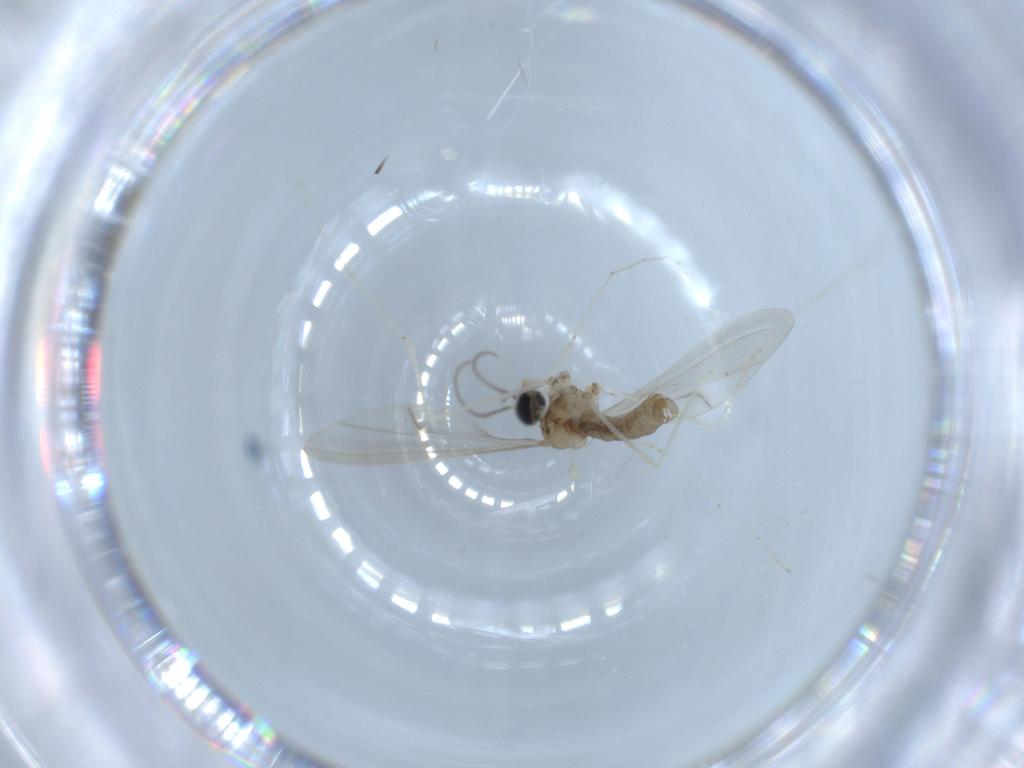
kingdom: Animalia
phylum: Arthropoda
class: Insecta
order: Diptera
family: Cecidomyiidae
